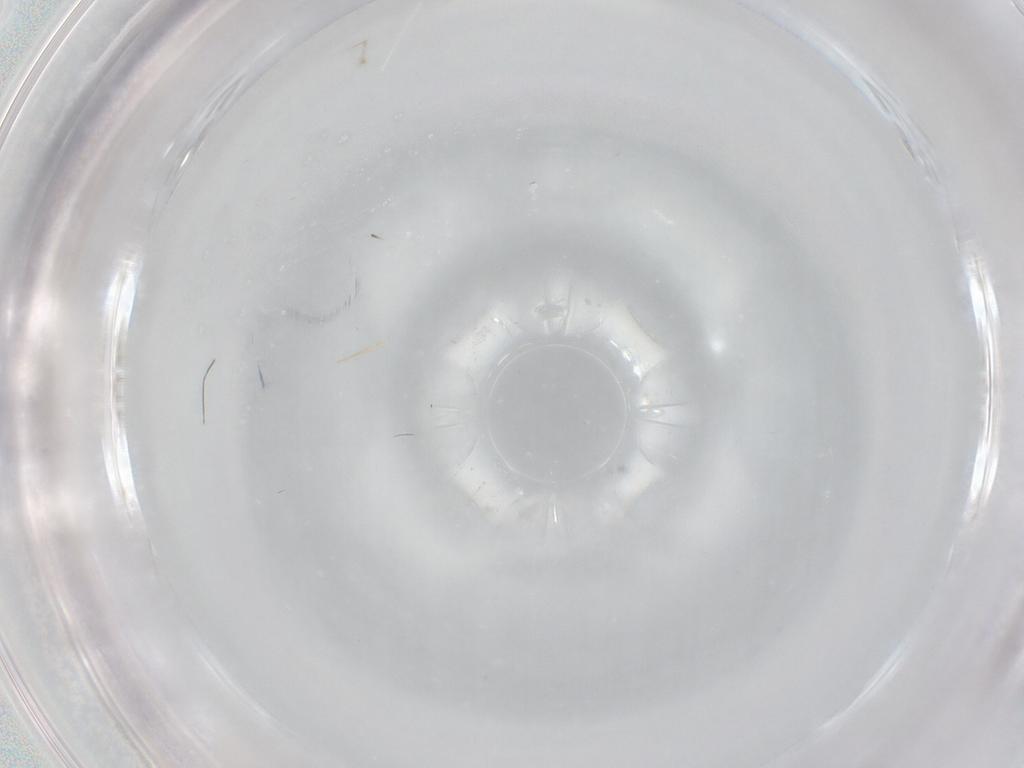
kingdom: Animalia
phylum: Arthropoda
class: Insecta
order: Diptera
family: Chironomidae
